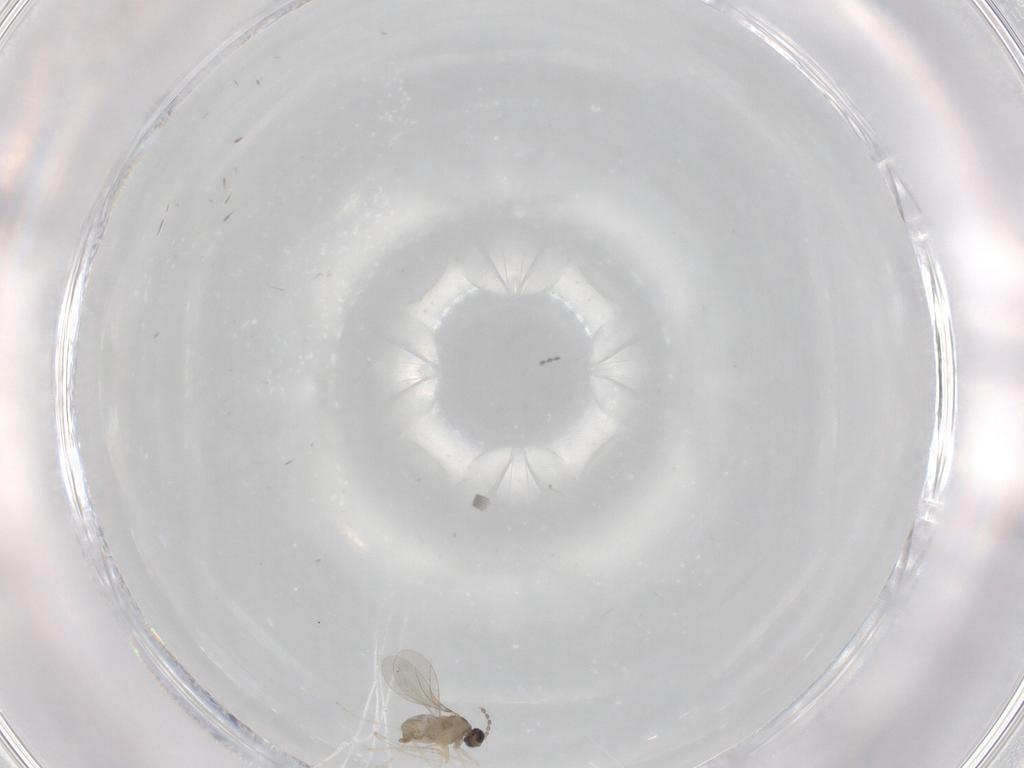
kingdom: Animalia
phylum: Arthropoda
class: Insecta
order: Diptera
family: Cecidomyiidae
